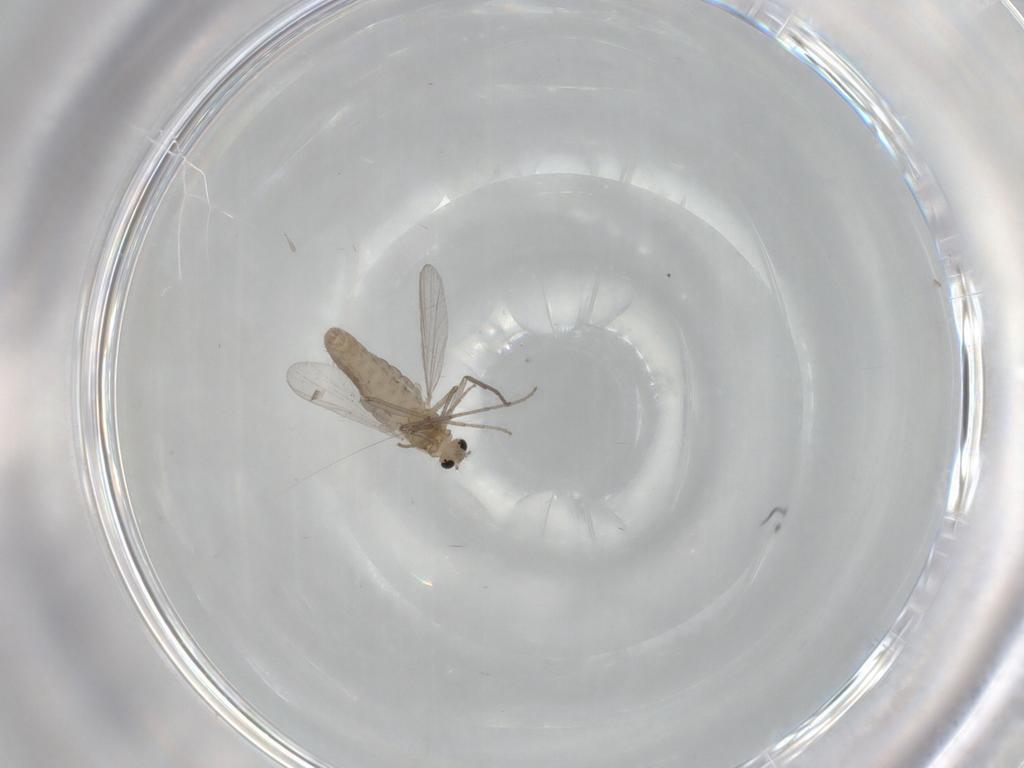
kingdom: Animalia
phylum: Arthropoda
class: Insecta
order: Diptera
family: Chironomidae
